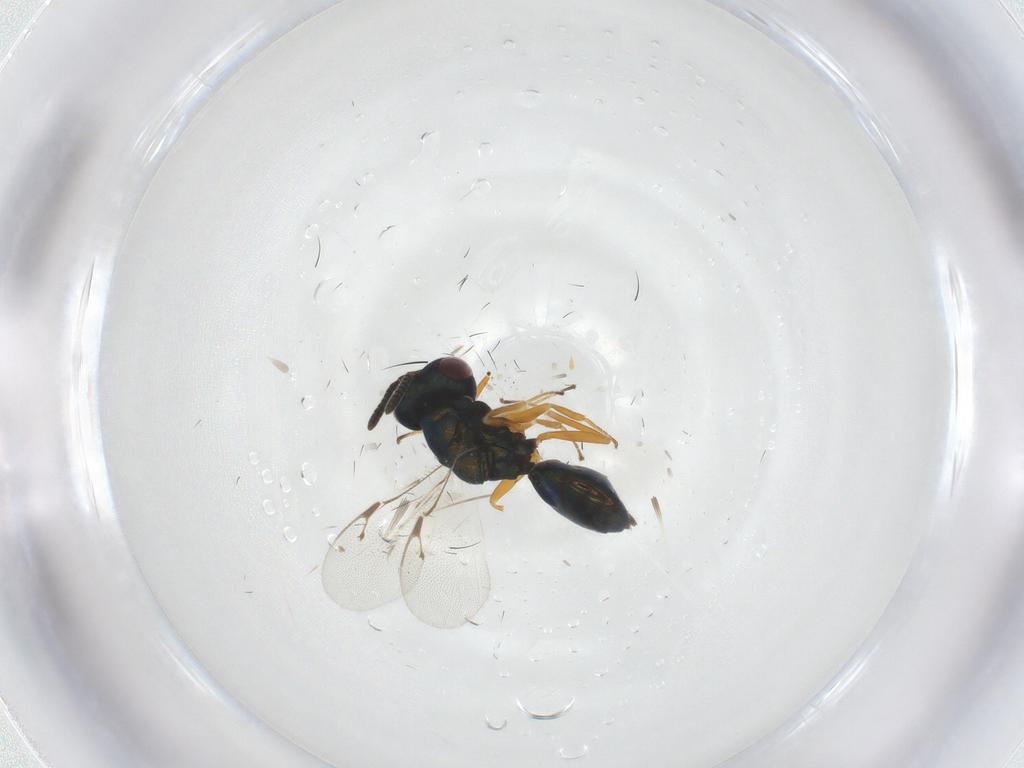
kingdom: Animalia
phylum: Arthropoda
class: Insecta
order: Hymenoptera
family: Eulophidae
